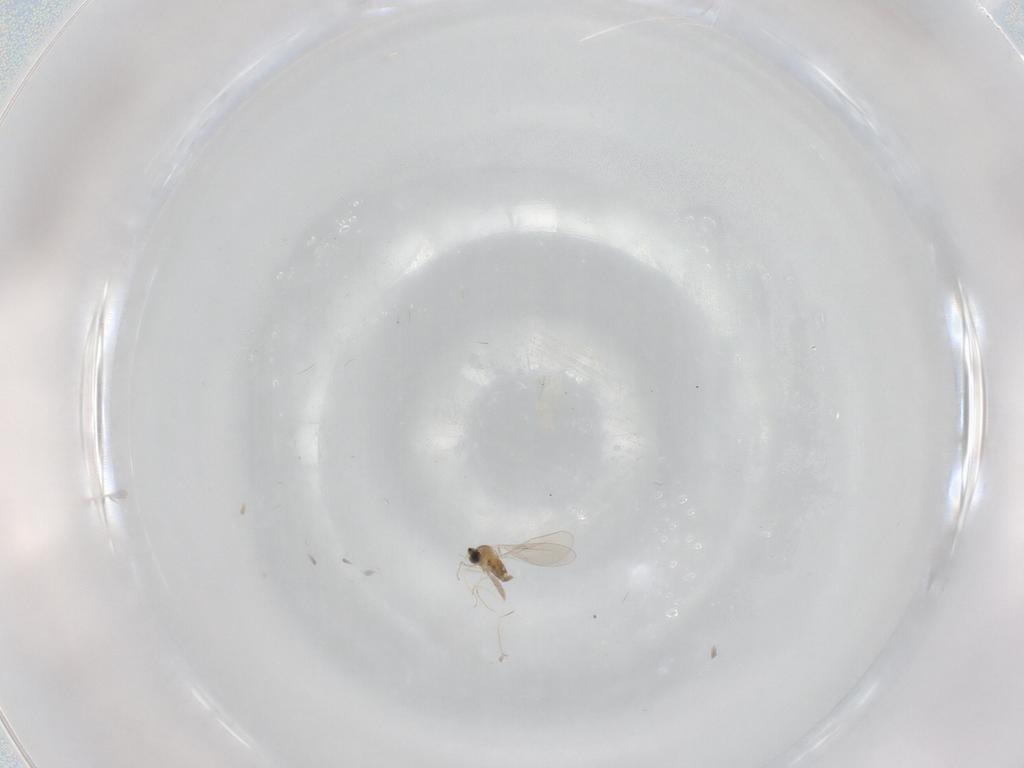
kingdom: Animalia
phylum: Arthropoda
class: Insecta
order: Diptera
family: Cecidomyiidae
